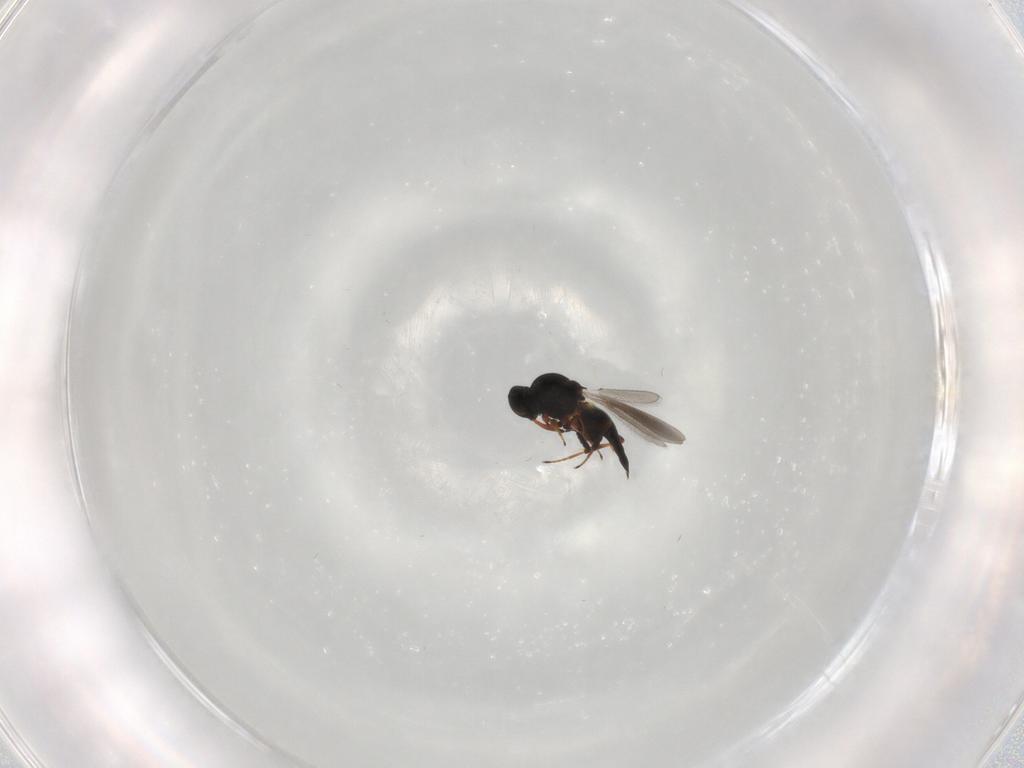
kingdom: Animalia
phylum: Arthropoda
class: Insecta
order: Hymenoptera
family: Platygastridae
